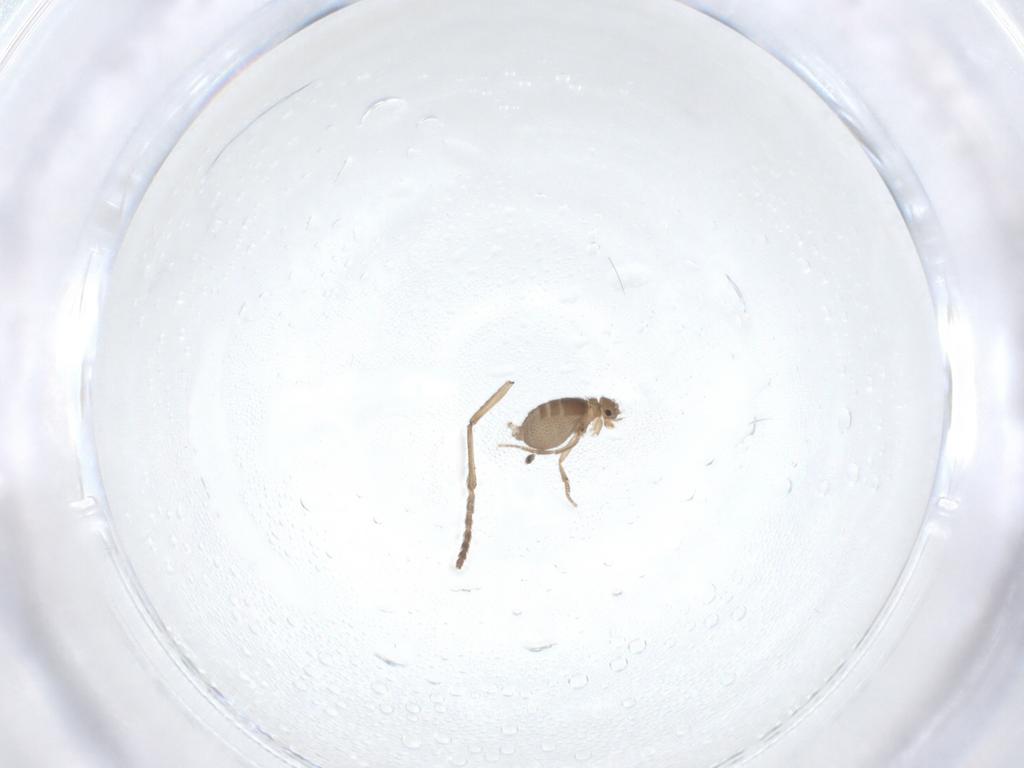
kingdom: Animalia
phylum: Arthropoda
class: Insecta
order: Diptera
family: Psychodidae
